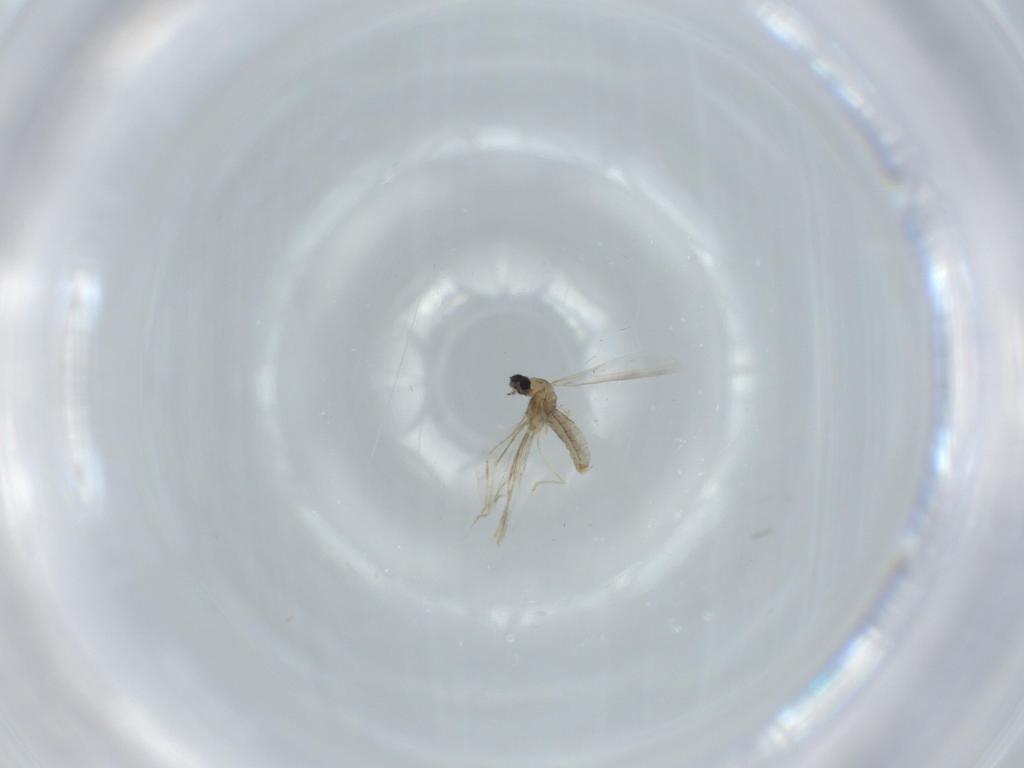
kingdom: Animalia
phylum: Arthropoda
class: Insecta
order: Diptera
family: Cecidomyiidae
